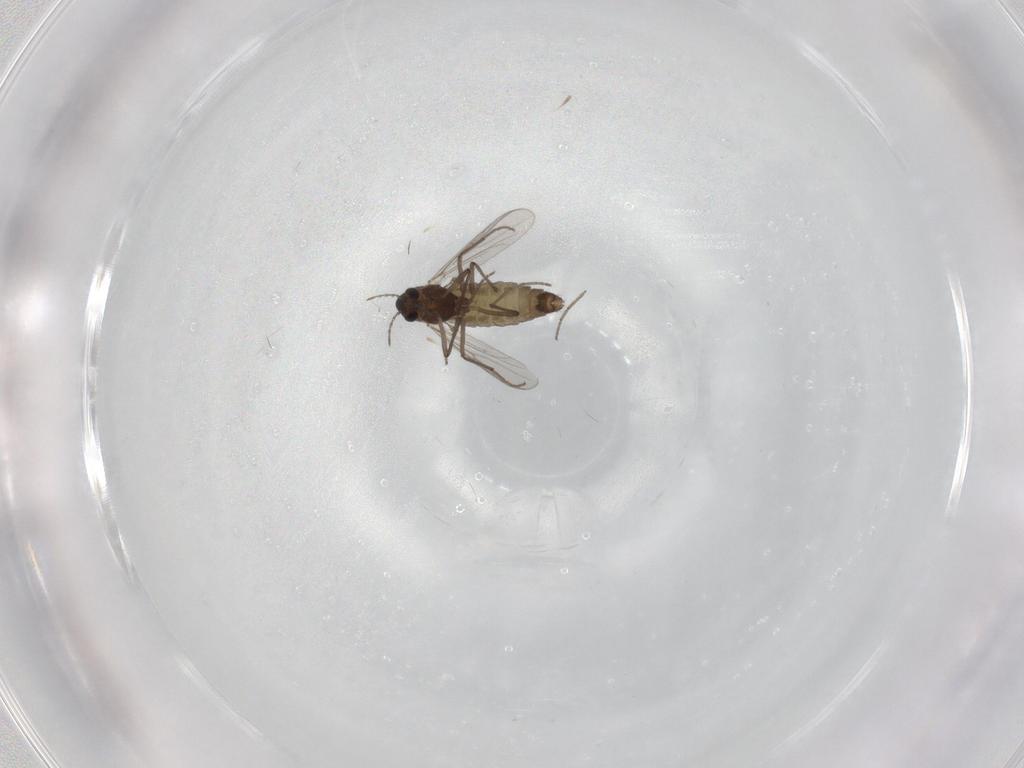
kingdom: Animalia
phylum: Arthropoda
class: Insecta
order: Diptera
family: Chironomidae
